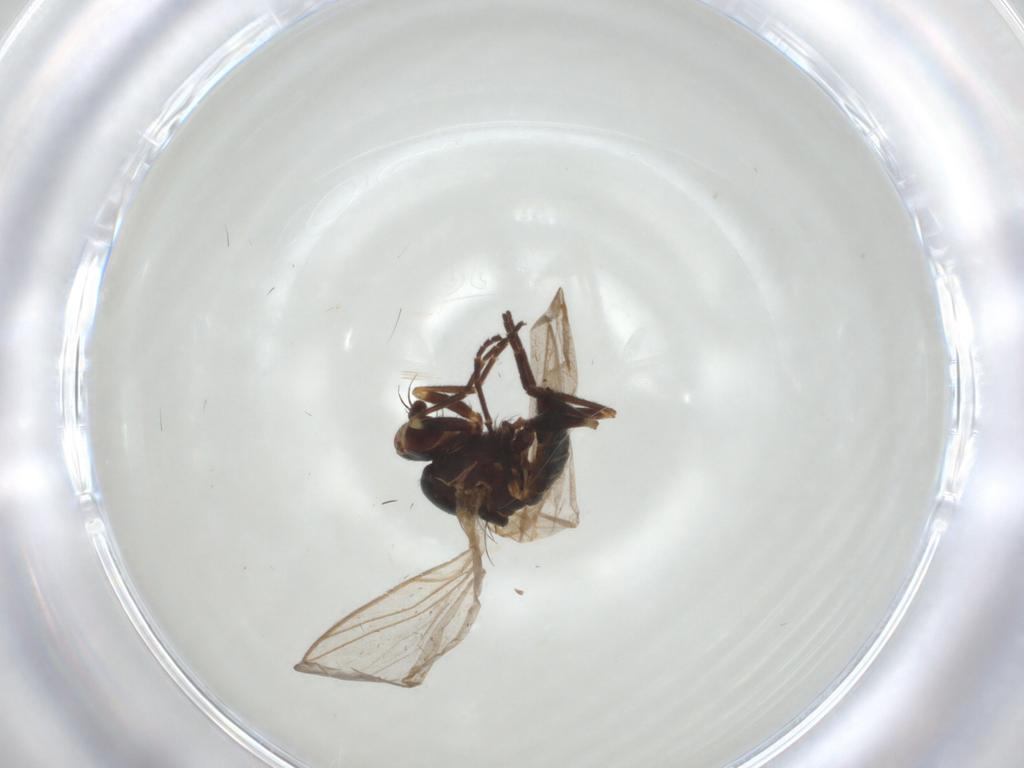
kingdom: Animalia
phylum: Arthropoda
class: Insecta
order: Diptera
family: Cecidomyiidae
